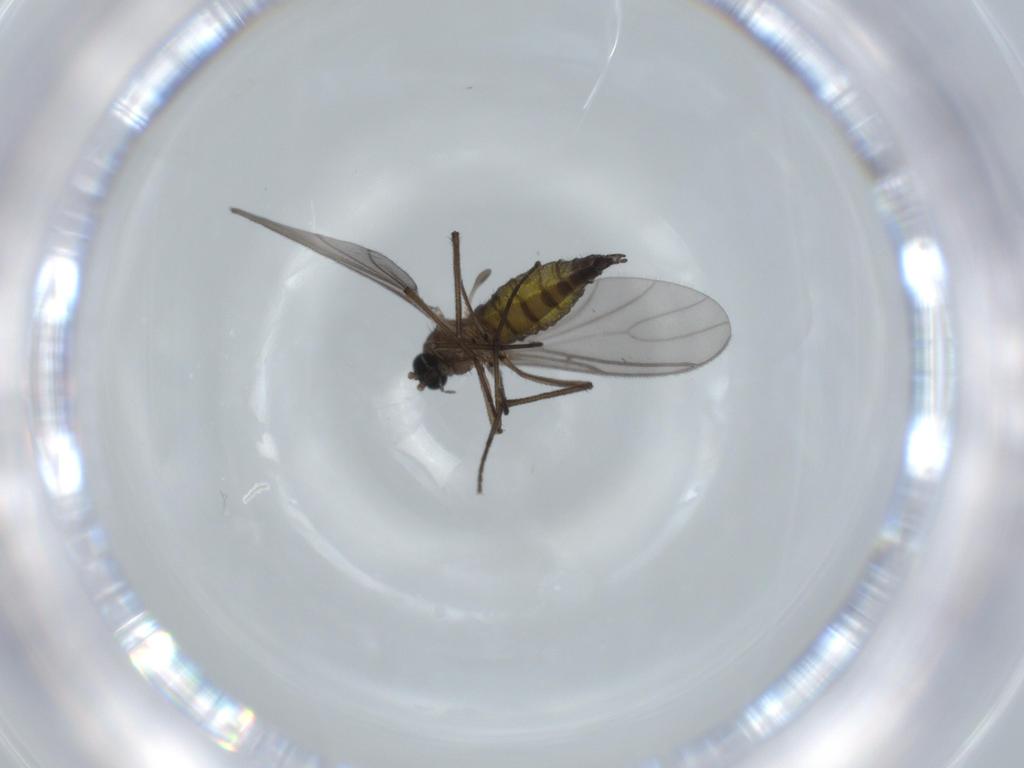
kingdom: Animalia
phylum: Arthropoda
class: Insecta
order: Diptera
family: Sciaridae
